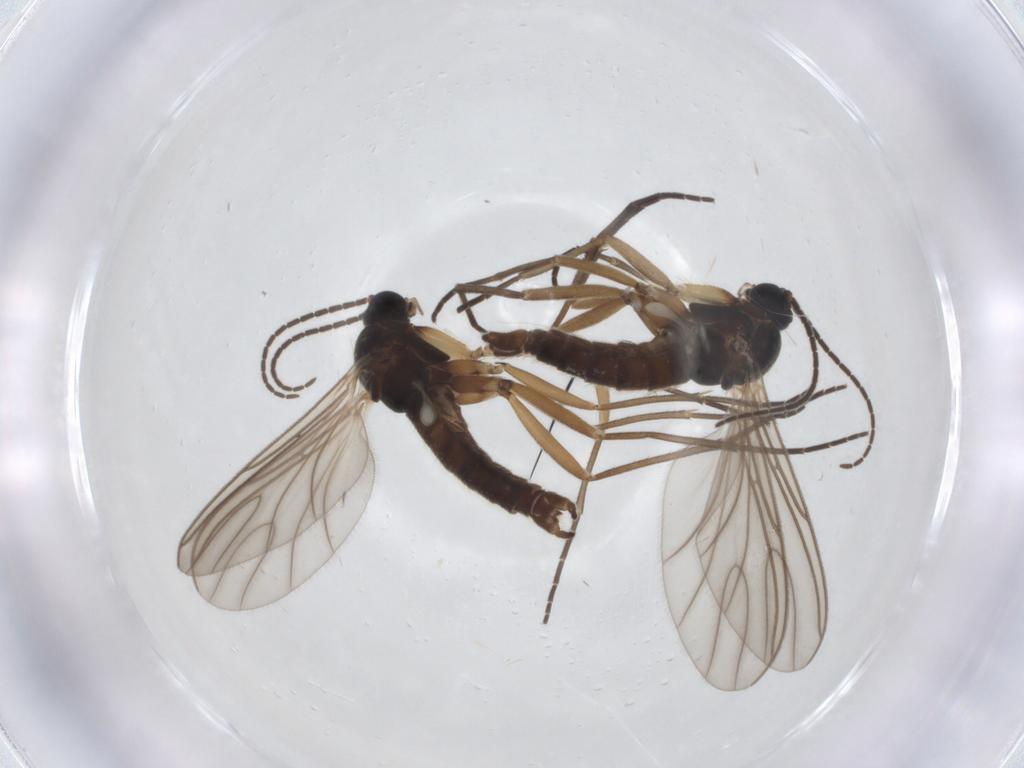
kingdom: Animalia
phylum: Arthropoda
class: Insecta
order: Diptera
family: Sciaridae
